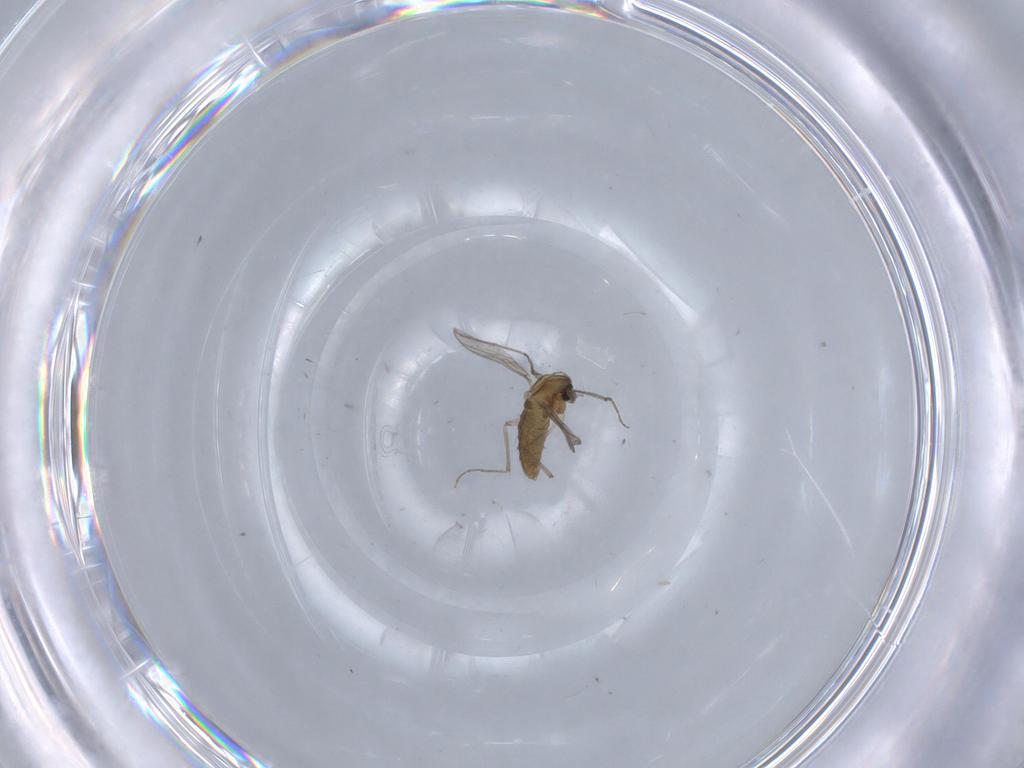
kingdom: Animalia
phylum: Arthropoda
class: Insecta
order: Diptera
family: Chironomidae
